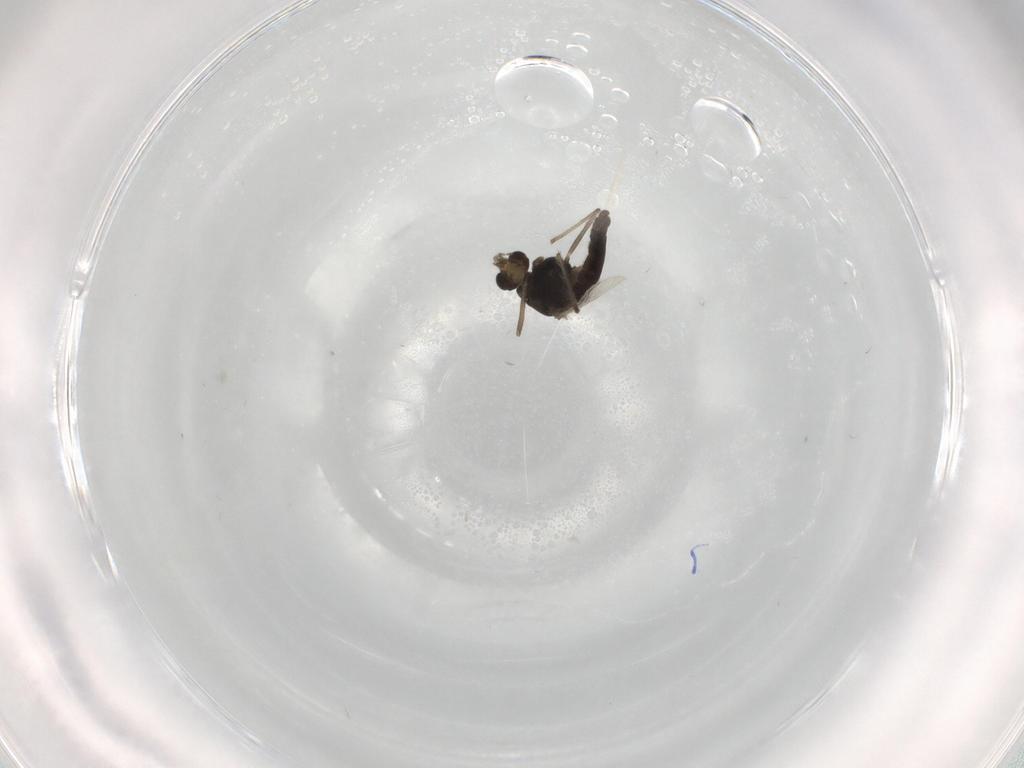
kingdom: Animalia
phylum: Arthropoda
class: Insecta
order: Diptera
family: Chironomidae
